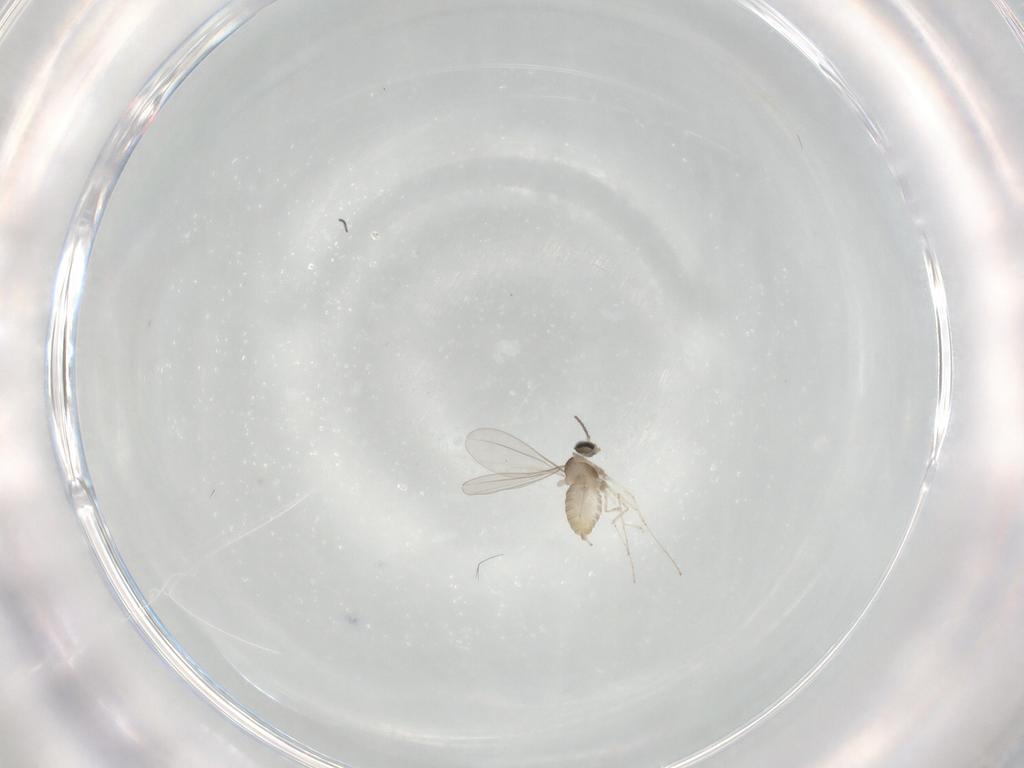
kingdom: Animalia
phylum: Arthropoda
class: Insecta
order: Diptera
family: Cecidomyiidae
